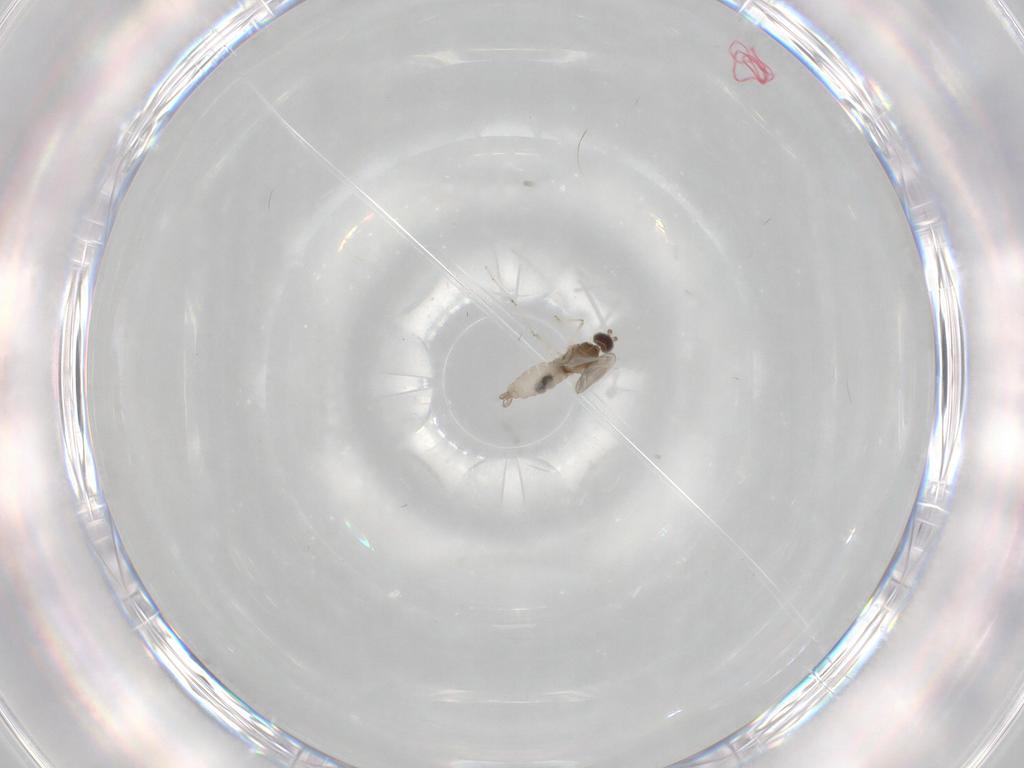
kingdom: Animalia
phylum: Arthropoda
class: Insecta
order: Diptera
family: Cecidomyiidae
